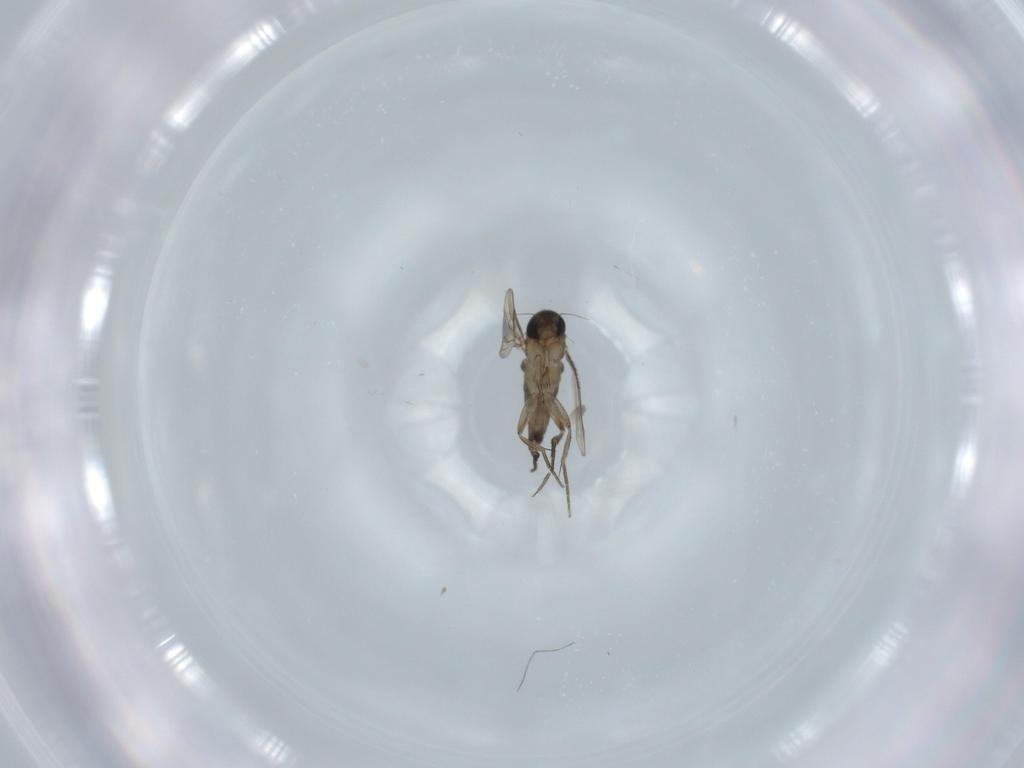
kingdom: Animalia
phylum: Arthropoda
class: Insecta
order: Diptera
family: Phoridae
